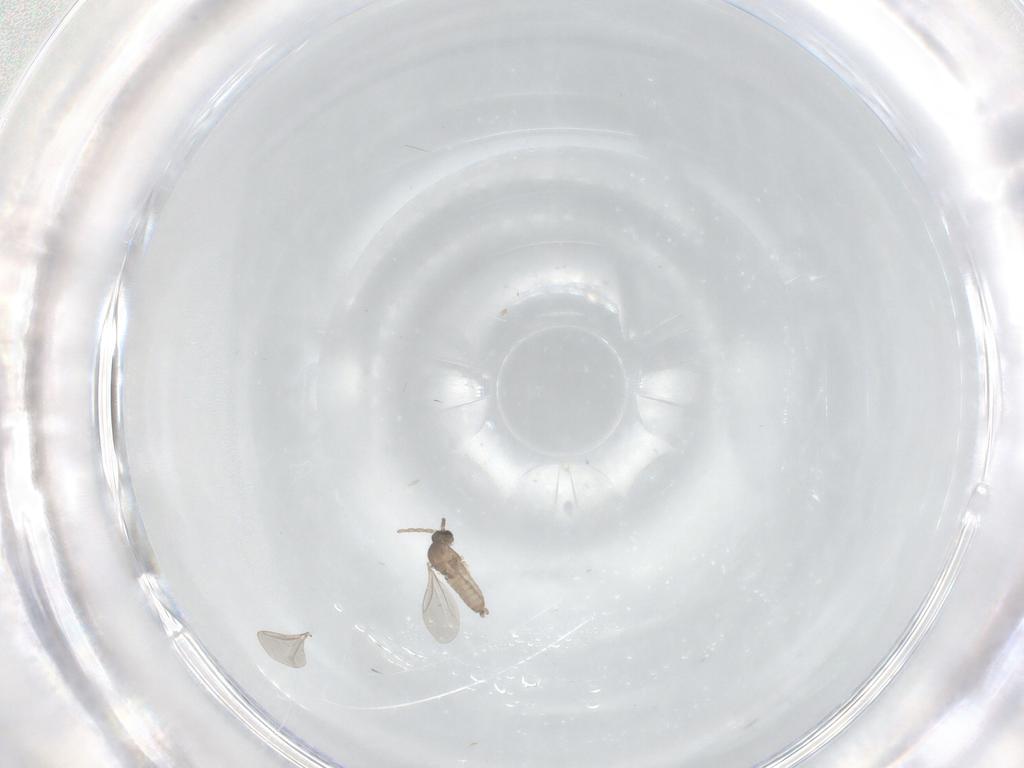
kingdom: Animalia
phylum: Arthropoda
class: Insecta
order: Diptera
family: Cecidomyiidae
